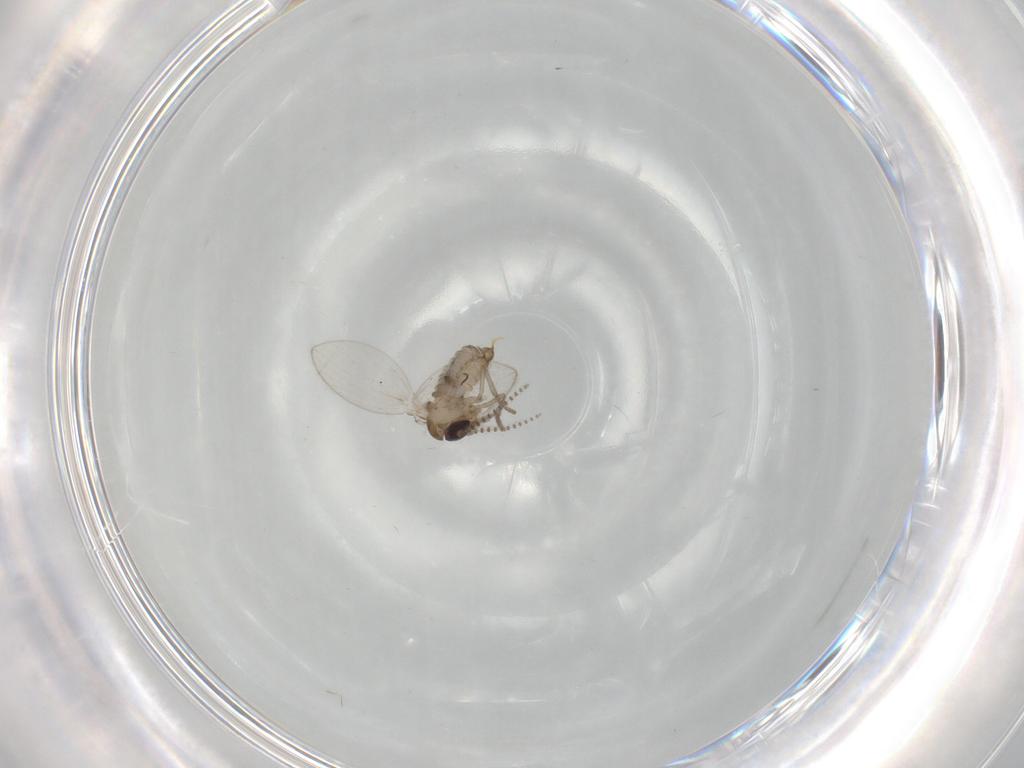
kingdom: Animalia
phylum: Arthropoda
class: Insecta
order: Diptera
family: Psychodidae
